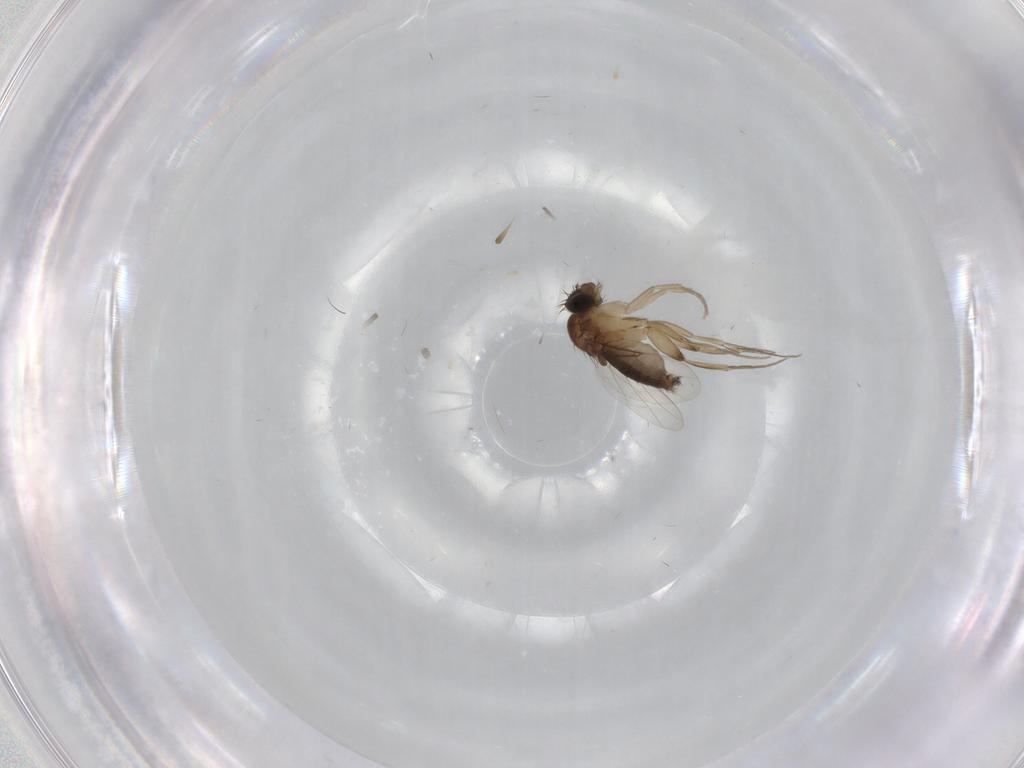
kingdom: Animalia
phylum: Arthropoda
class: Insecta
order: Diptera
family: Phoridae
